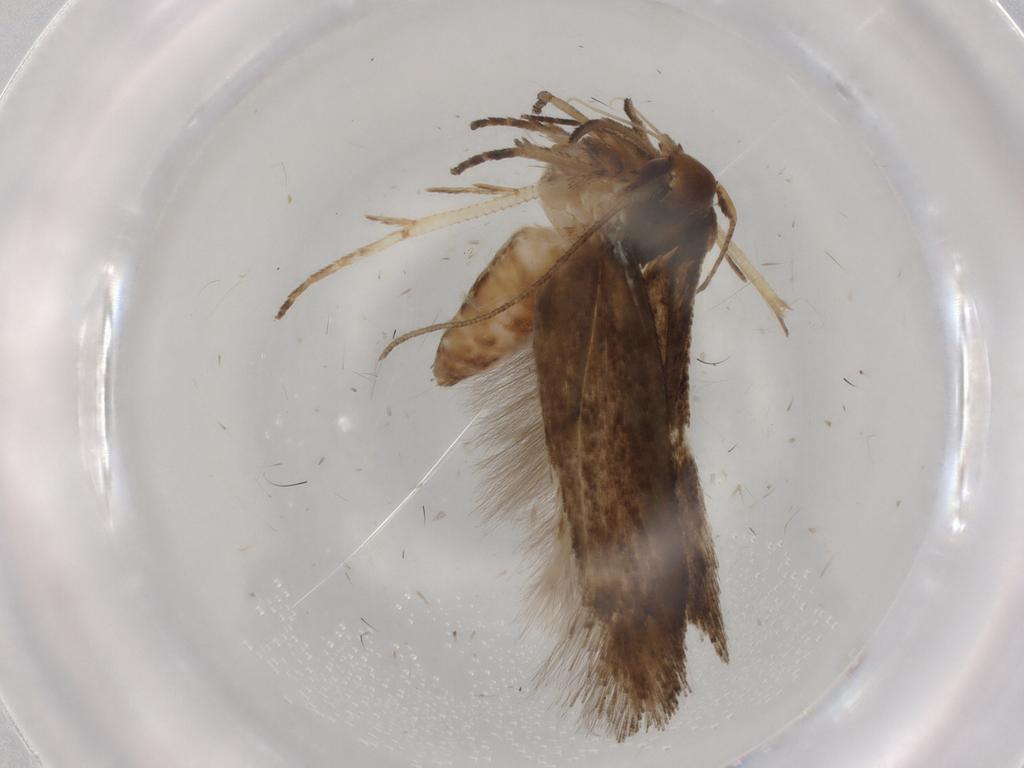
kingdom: Animalia
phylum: Arthropoda
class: Insecta
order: Lepidoptera
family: Cosmopterigidae
